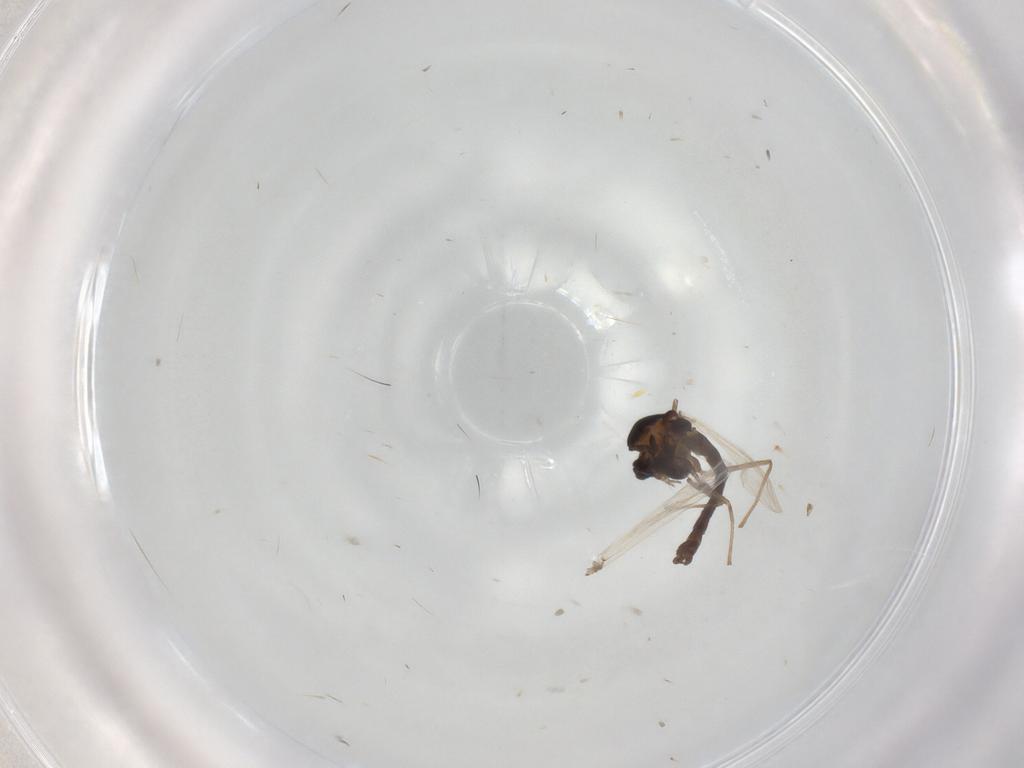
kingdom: Animalia
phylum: Arthropoda
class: Insecta
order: Diptera
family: Chironomidae
